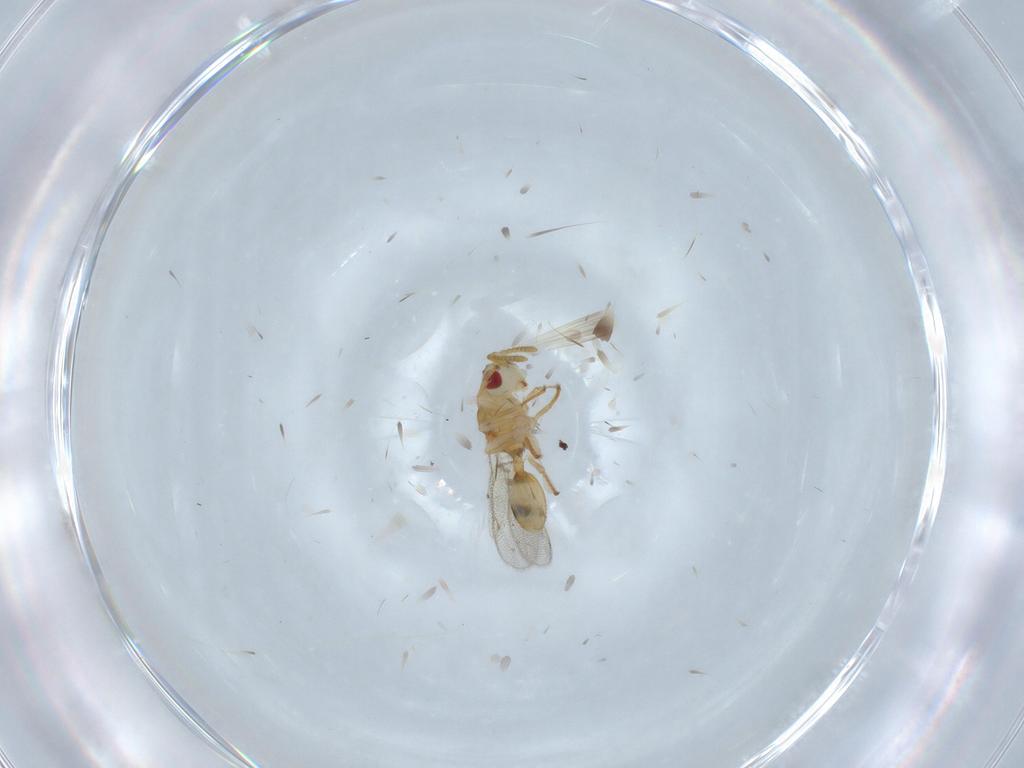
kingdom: Animalia
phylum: Arthropoda
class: Insecta
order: Hymenoptera
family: Eurytomidae
